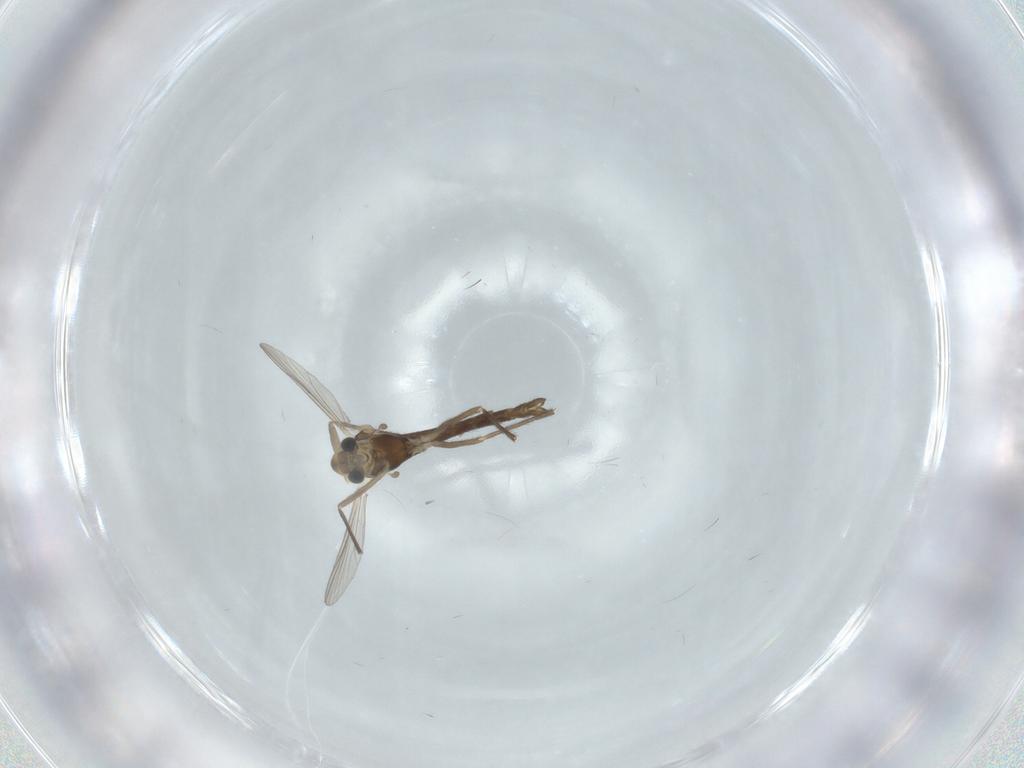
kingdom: Animalia
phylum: Arthropoda
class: Insecta
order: Diptera
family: Chironomidae
